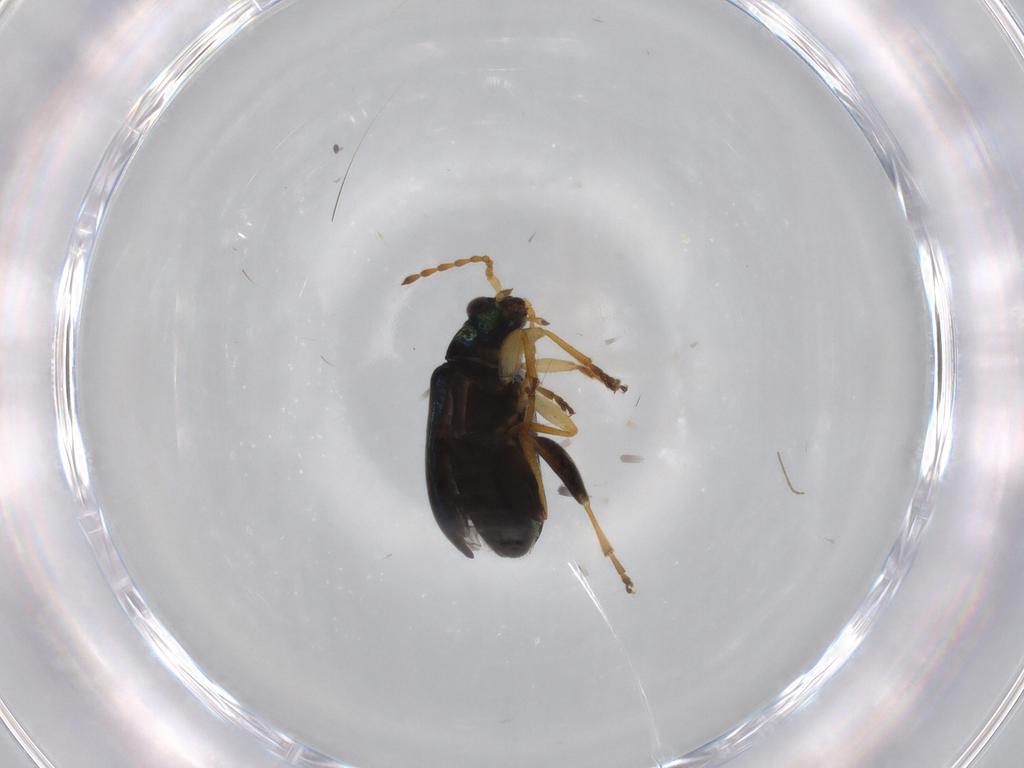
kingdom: Animalia
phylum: Arthropoda
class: Insecta
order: Coleoptera
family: Chrysomelidae
